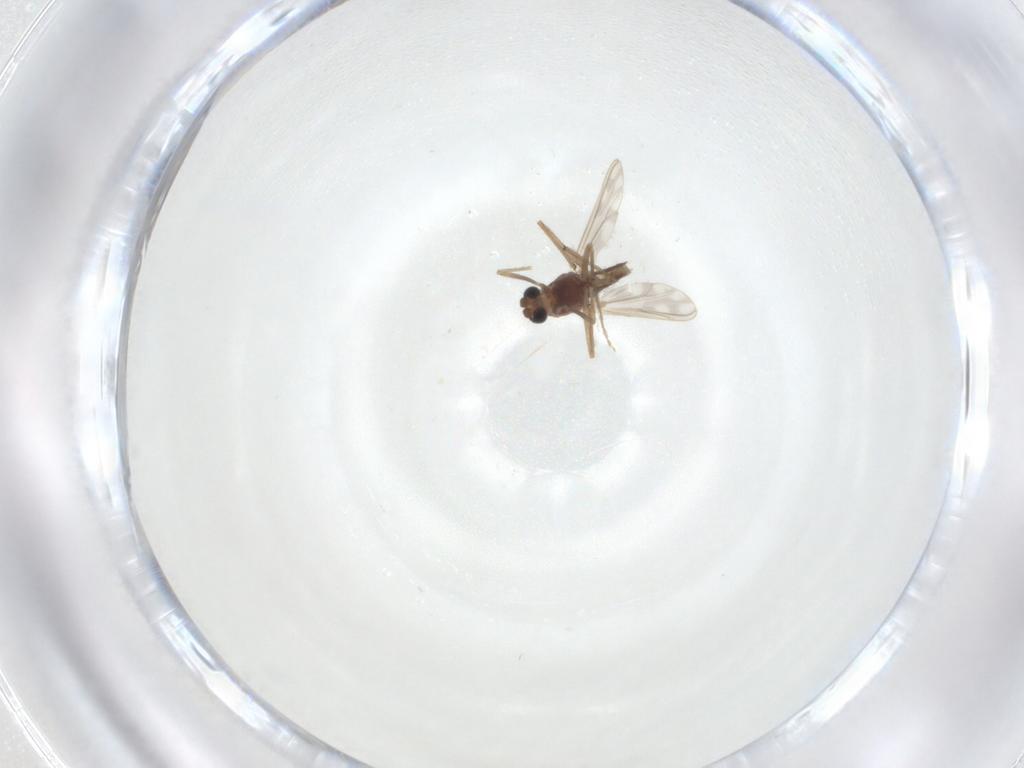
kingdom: Animalia
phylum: Arthropoda
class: Insecta
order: Diptera
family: Chironomidae
